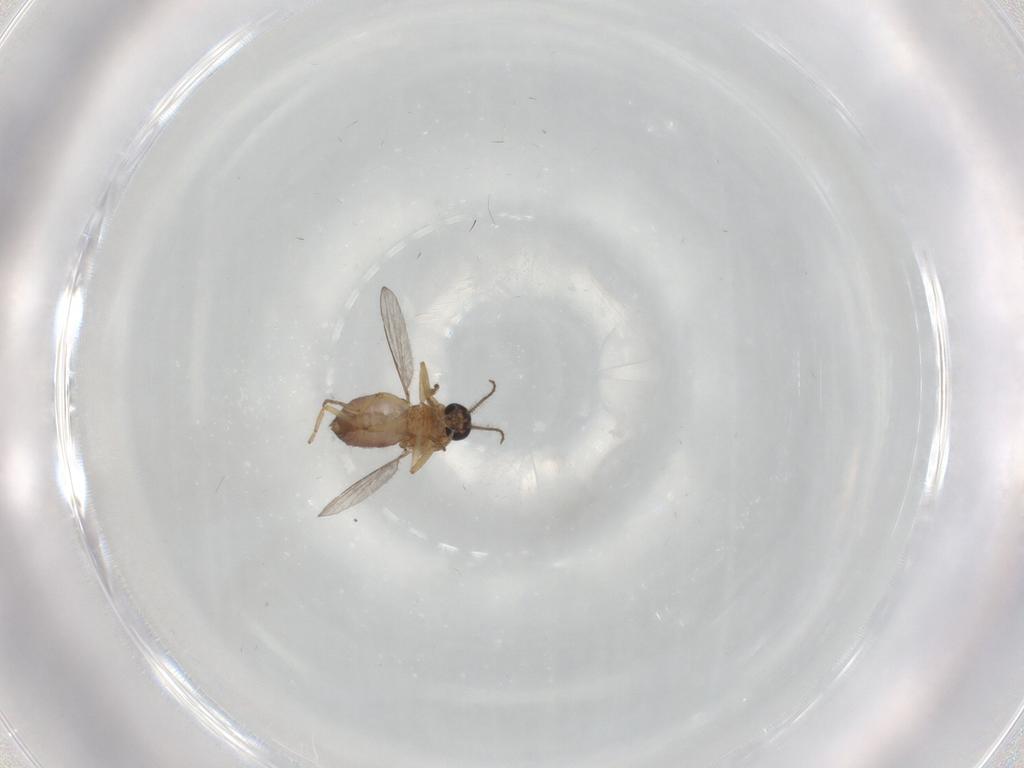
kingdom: Animalia
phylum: Arthropoda
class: Insecta
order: Diptera
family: Ceratopogonidae
